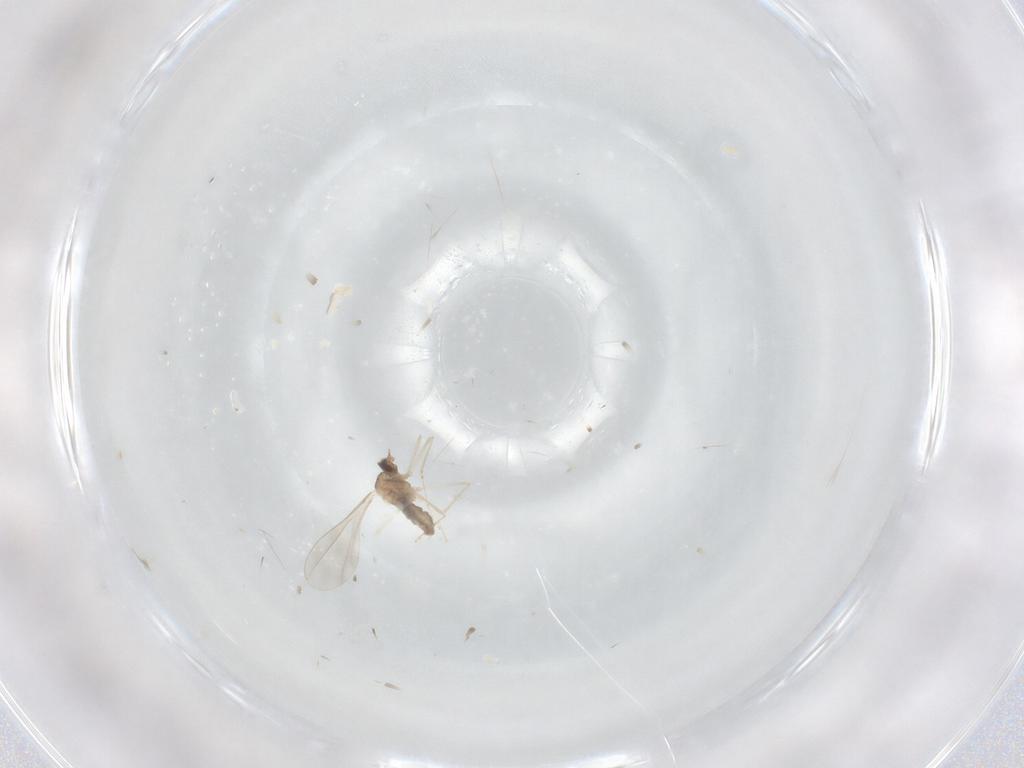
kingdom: Animalia
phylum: Arthropoda
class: Insecta
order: Diptera
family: Cecidomyiidae
